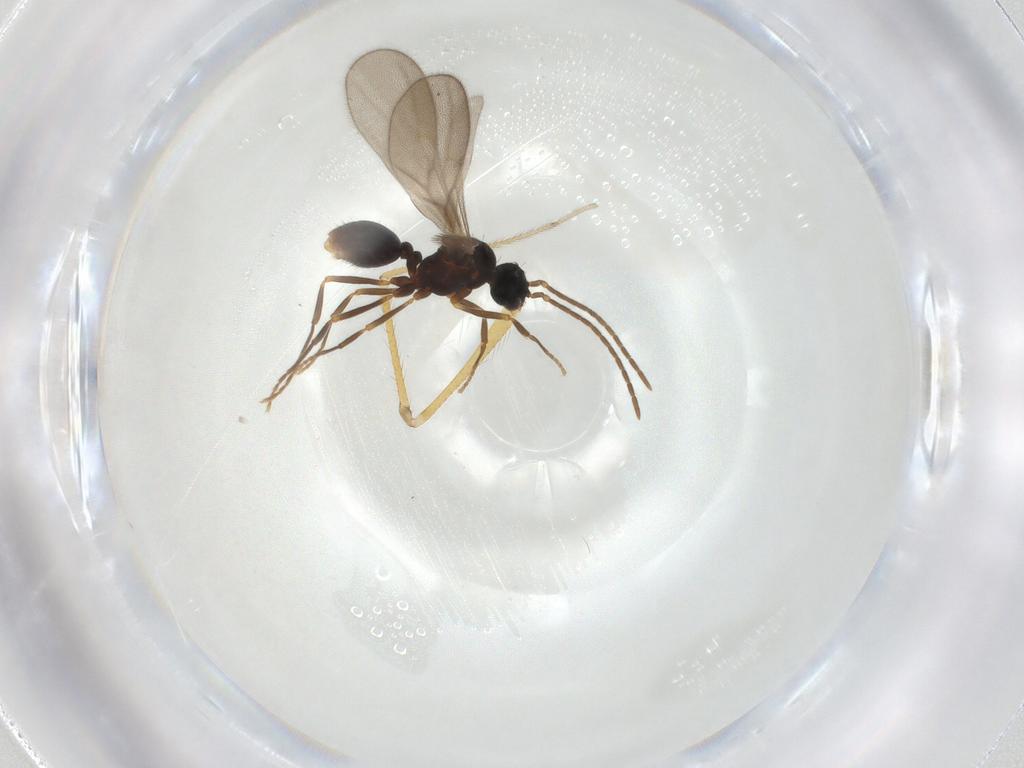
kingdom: Animalia
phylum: Arthropoda
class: Insecta
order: Hymenoptera
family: Formicidae
